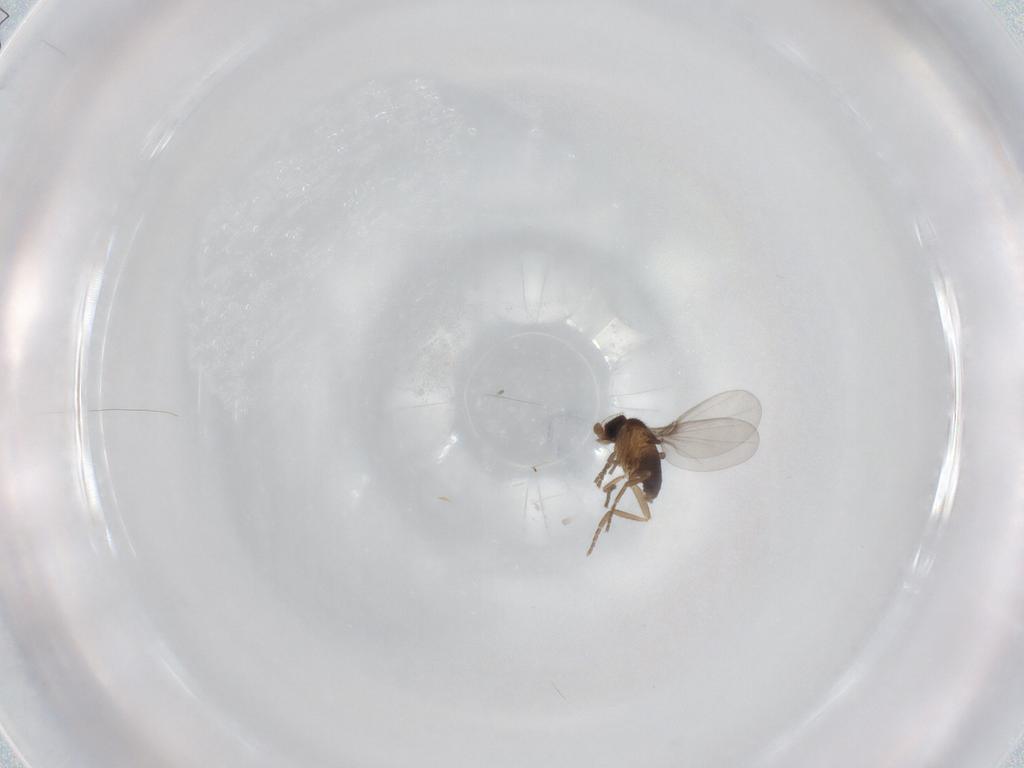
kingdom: Animalia
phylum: Arthropoda
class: Insecta
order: Diptera
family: Phoridae
